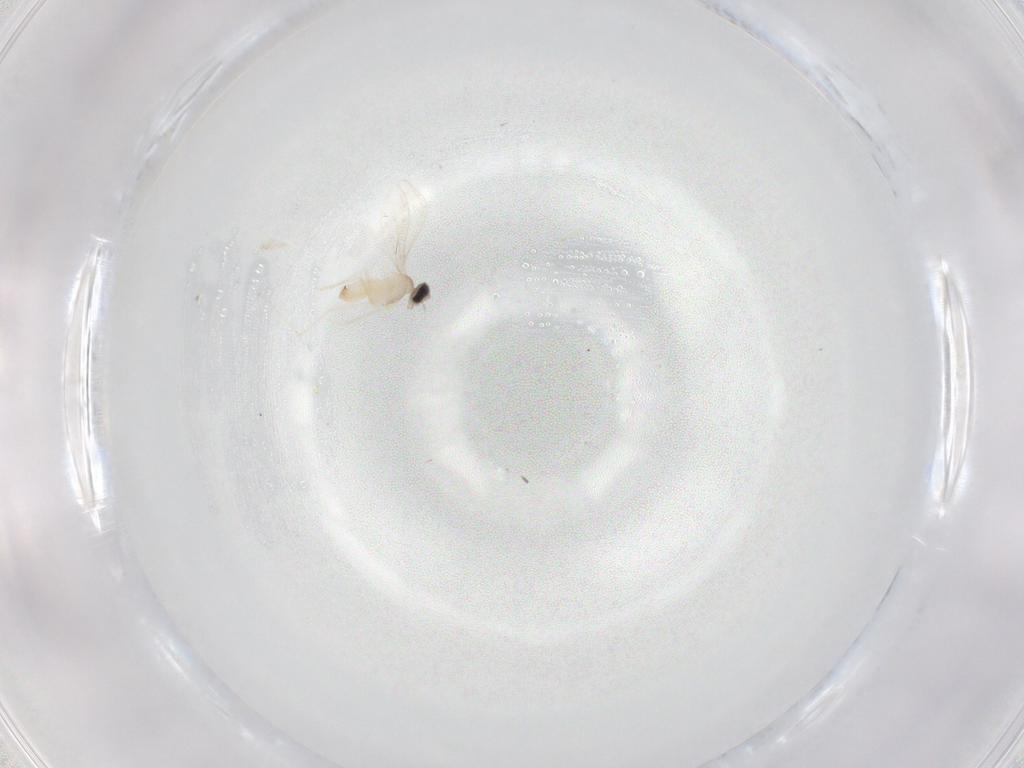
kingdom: Animalia
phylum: Arthropoda
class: Insecta
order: Diptera
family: Cecidomyiidae
